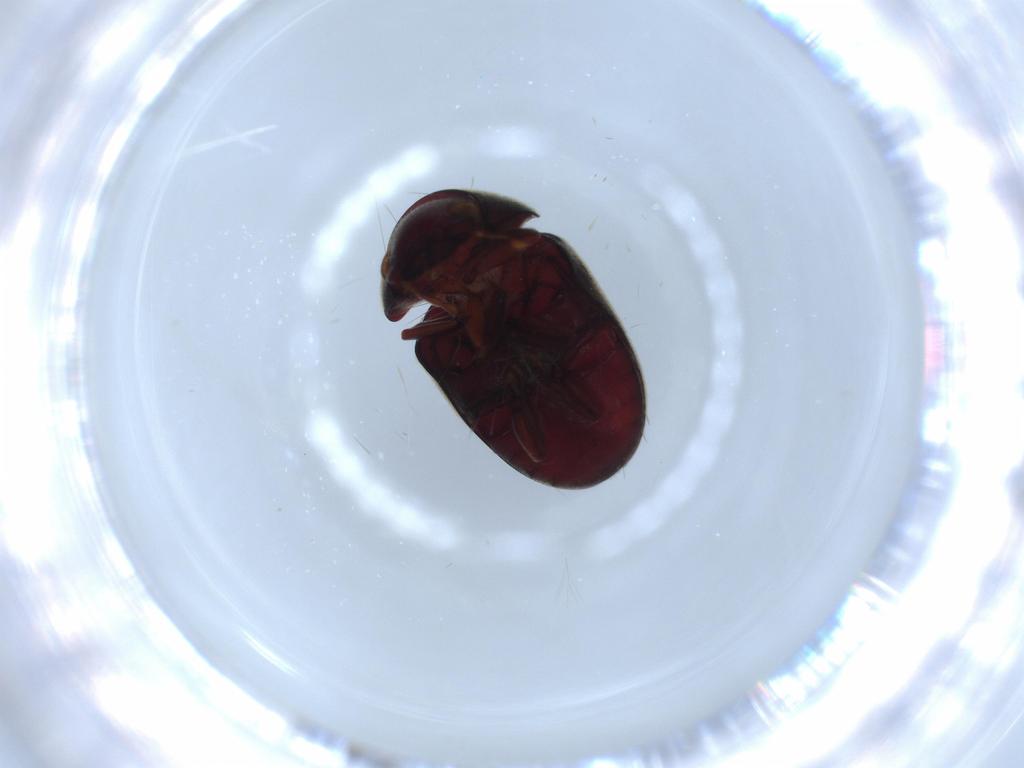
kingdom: Animalia
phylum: Arthropoda
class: Insecta
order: Coleoptera
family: Ptinidae
